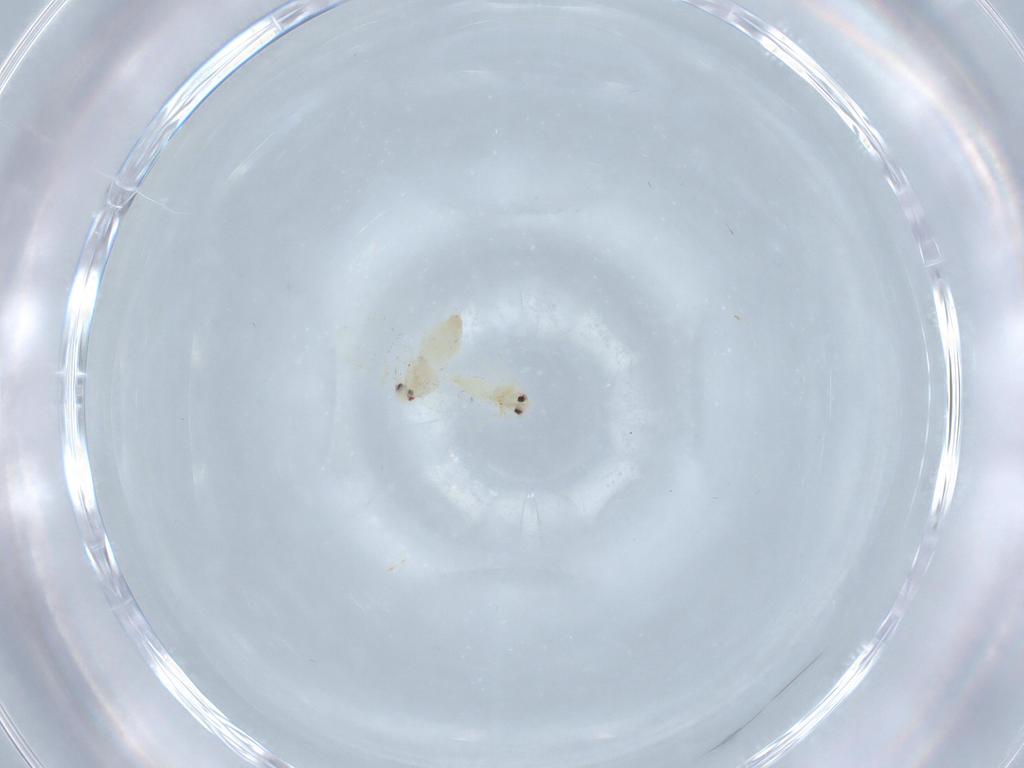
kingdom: Animalia
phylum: Arthropoda
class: Insecta
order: Hemiptera
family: Aleyrodidae
